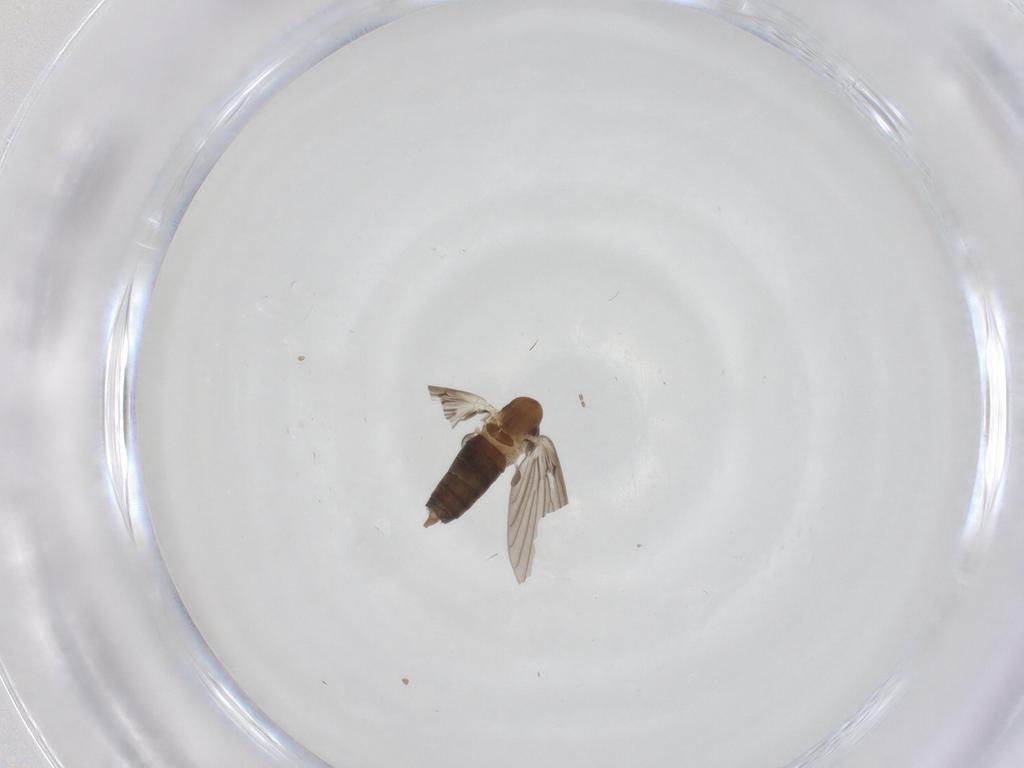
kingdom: Animalia
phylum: Arthropoda
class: Insecta
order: Diptera
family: Psychodidae
